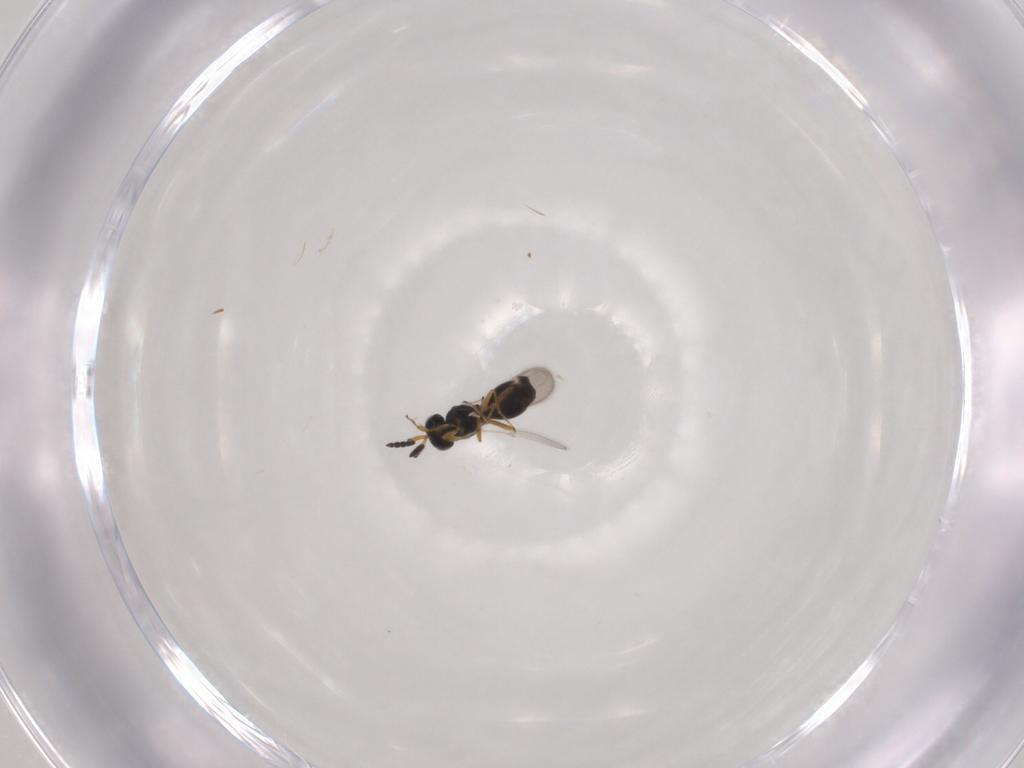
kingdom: Animalia
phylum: Arthropoda
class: Insecta
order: Hymenoptera
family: Scelionidae
